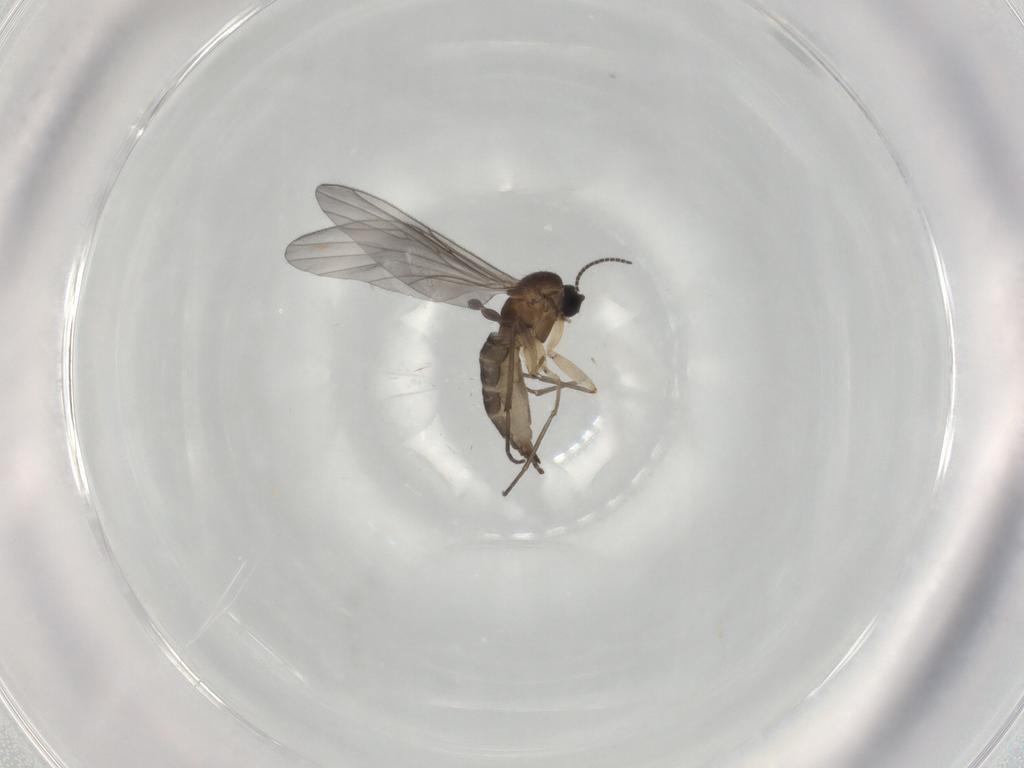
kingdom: Animalia
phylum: Arthropoda
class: Insecta
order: Diptera
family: Sciaridae
